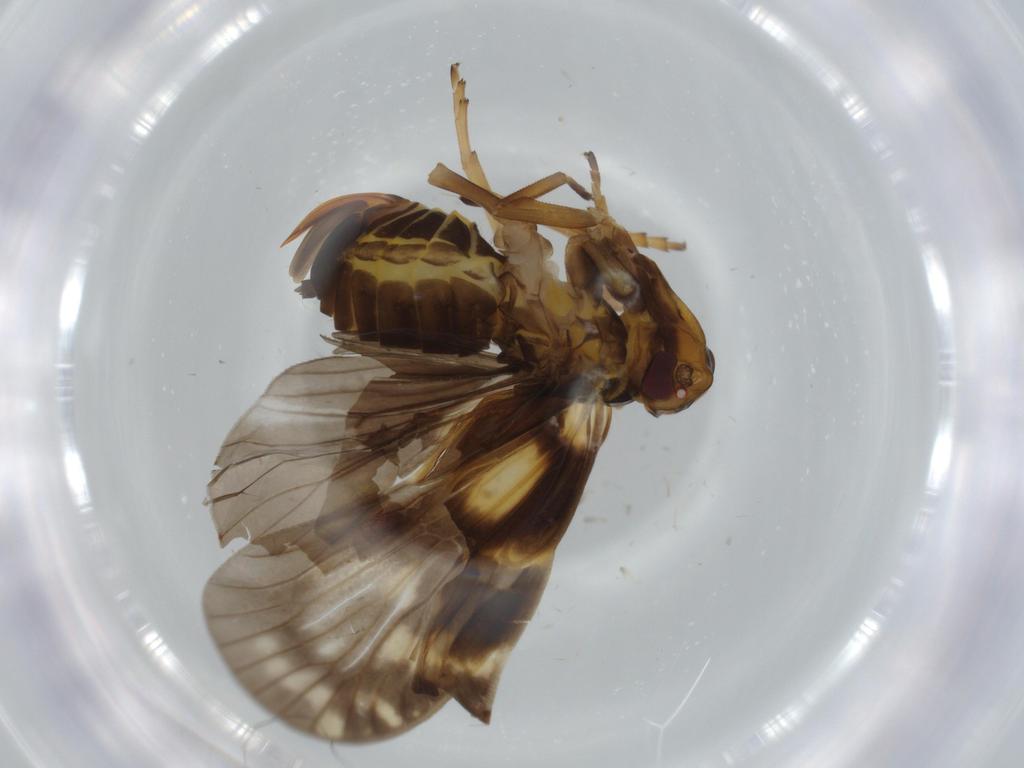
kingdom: Animalia
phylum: Arthropoda
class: Insecta
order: Hemiptera
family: Cixiidae
